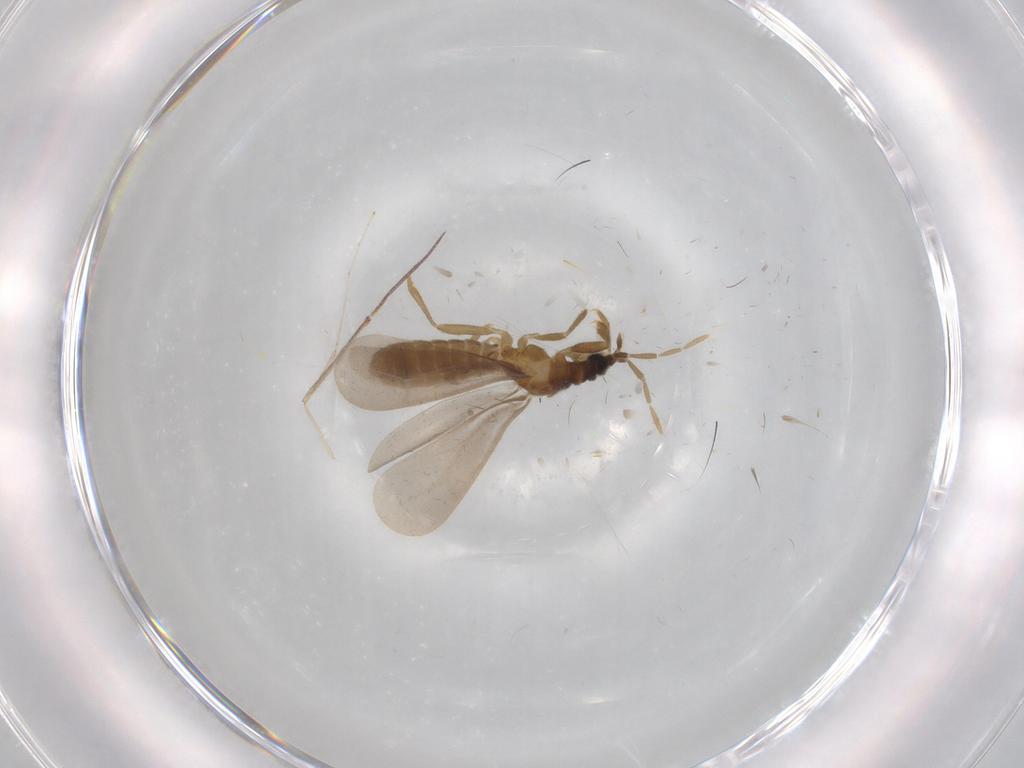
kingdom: Animalia
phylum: Arthropoda
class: Insecta
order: Hemiptera
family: Enicocephalidae
